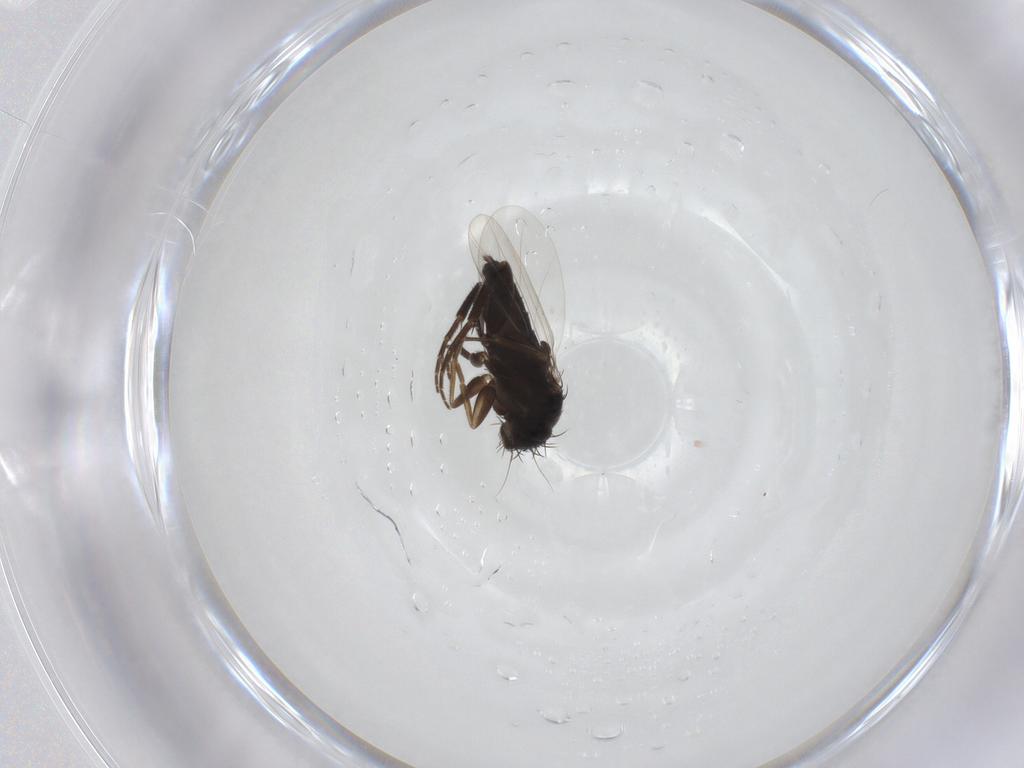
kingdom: Animalia
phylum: Arthropoda
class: Insecta
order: Diptera
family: Phoridae
